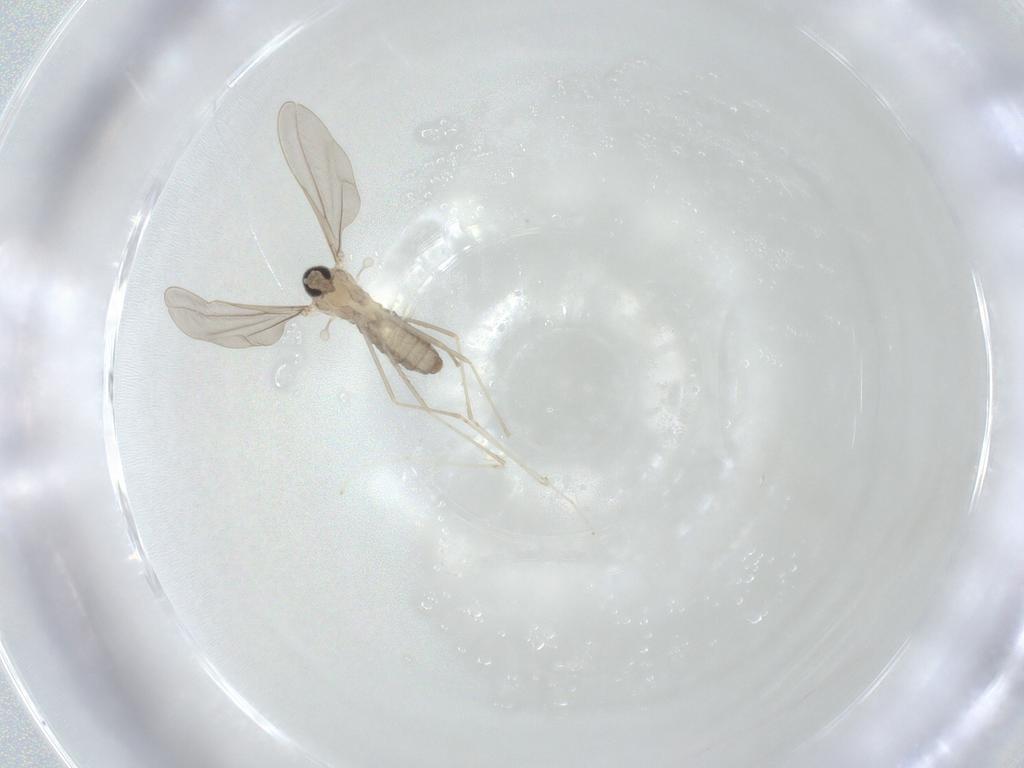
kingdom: Animalia
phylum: Arthropoda
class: Insecta
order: Diptera
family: Cecidomyiidae
